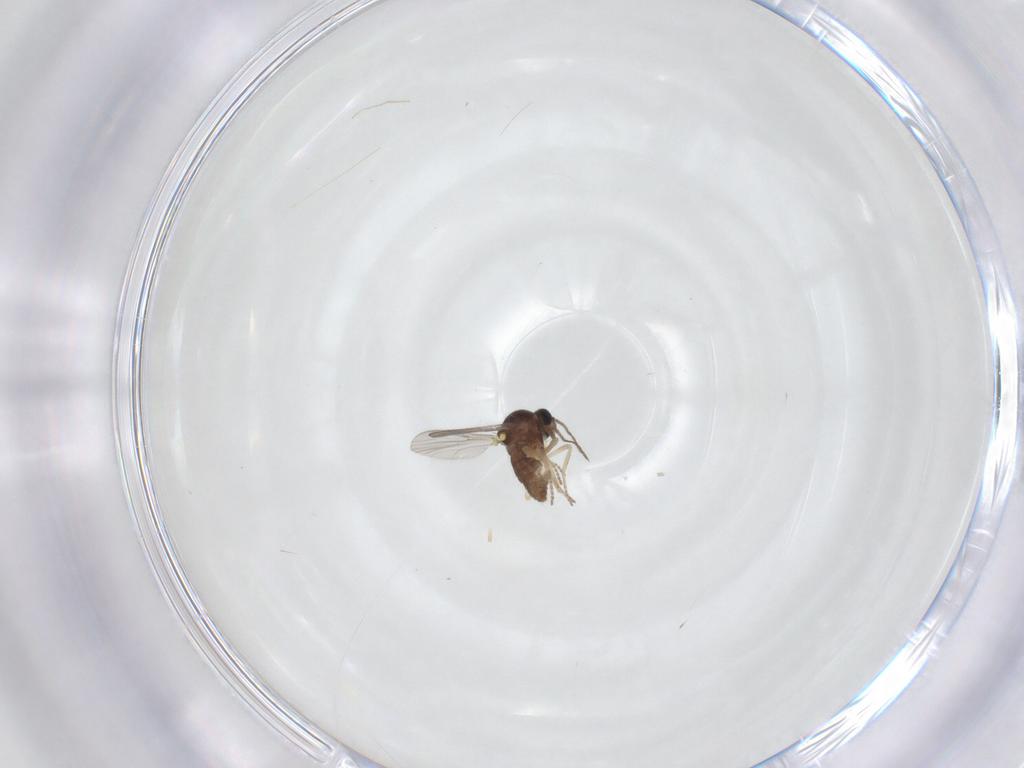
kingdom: Animalia
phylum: Arthropoda
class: Insecta
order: Diptera
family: Ceratopogonidae
